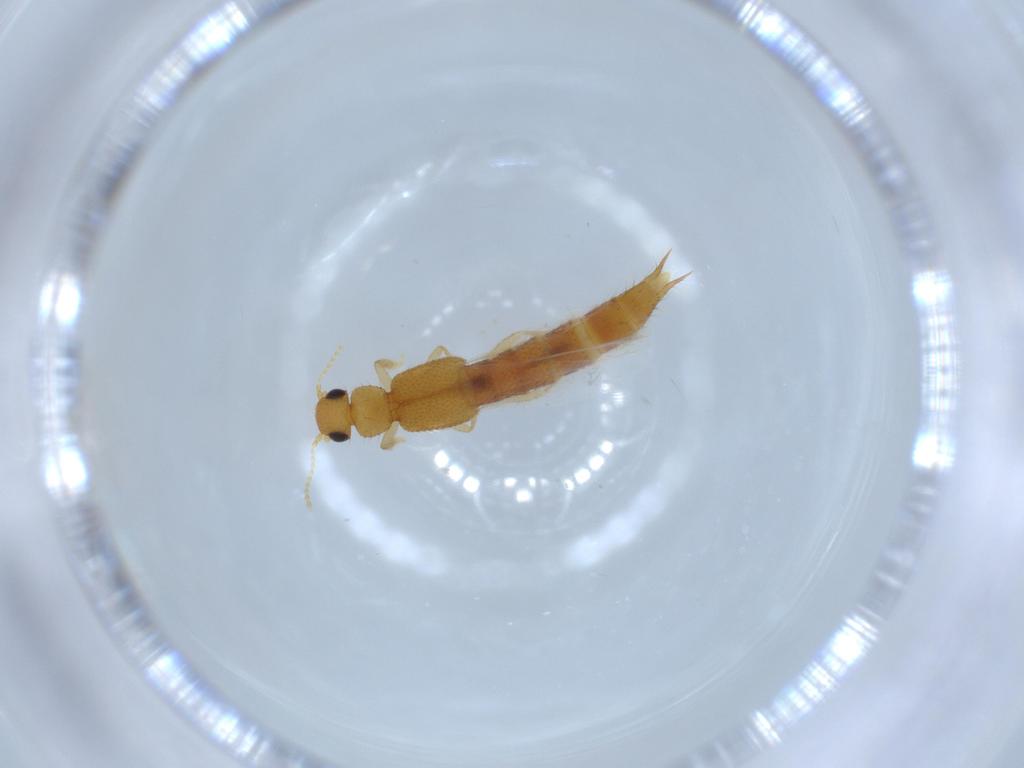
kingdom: Animalia
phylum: Arthropoda
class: Insecta
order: Coleoptera
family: Staphylinidae
